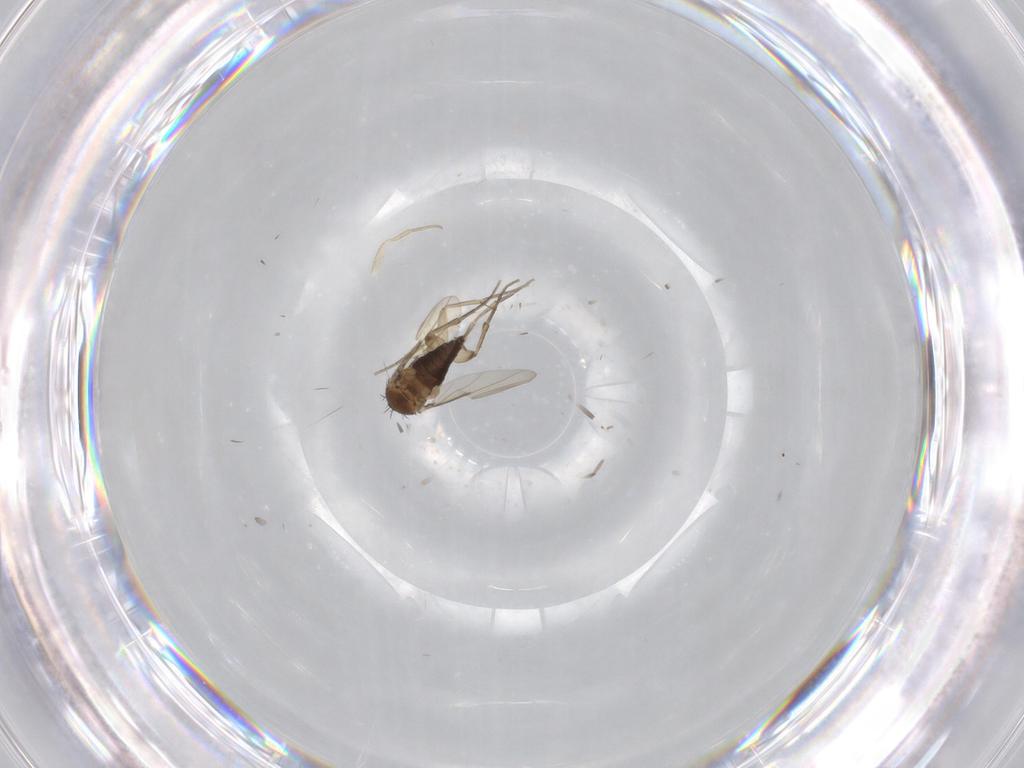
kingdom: Animalia
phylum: Arthropoda
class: Insecta
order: Diptera
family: Phoridae
